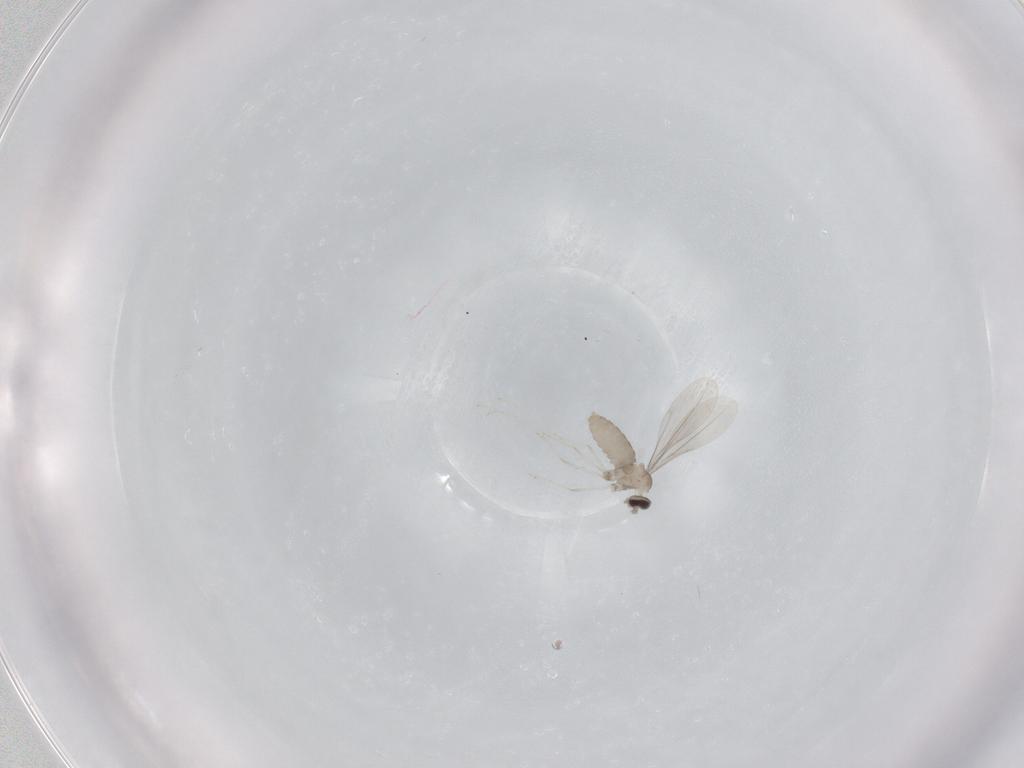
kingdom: Animalia
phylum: Arthropoda
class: Insecta
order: Diptera
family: Cecidomyiidae
